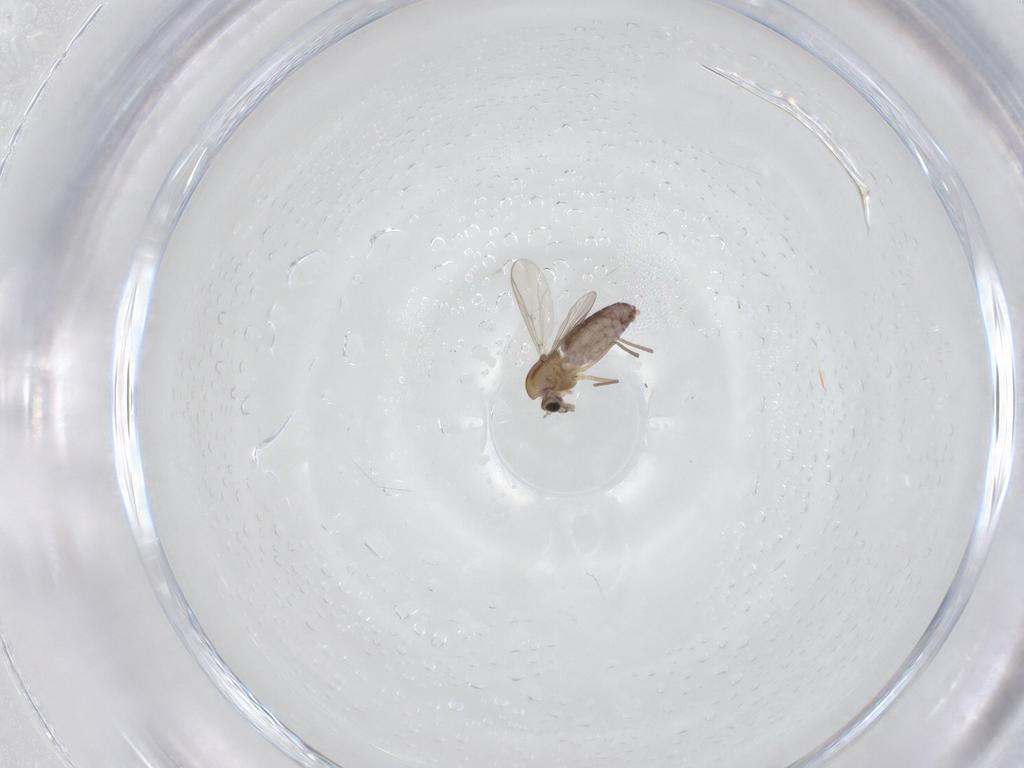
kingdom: Animalia
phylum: Arthropoda
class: Insecta
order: Diptera
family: Chironomidae
